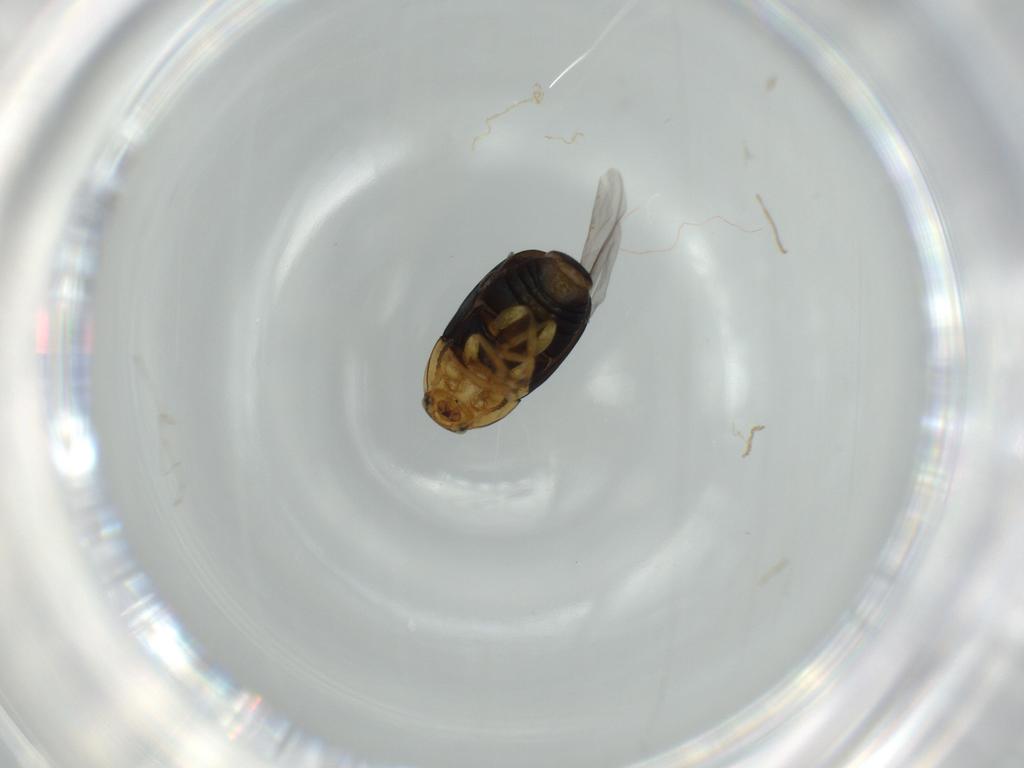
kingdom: Animalia
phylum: Arthropoda
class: Insecta
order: Coleoptera
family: Chrysomelidae
